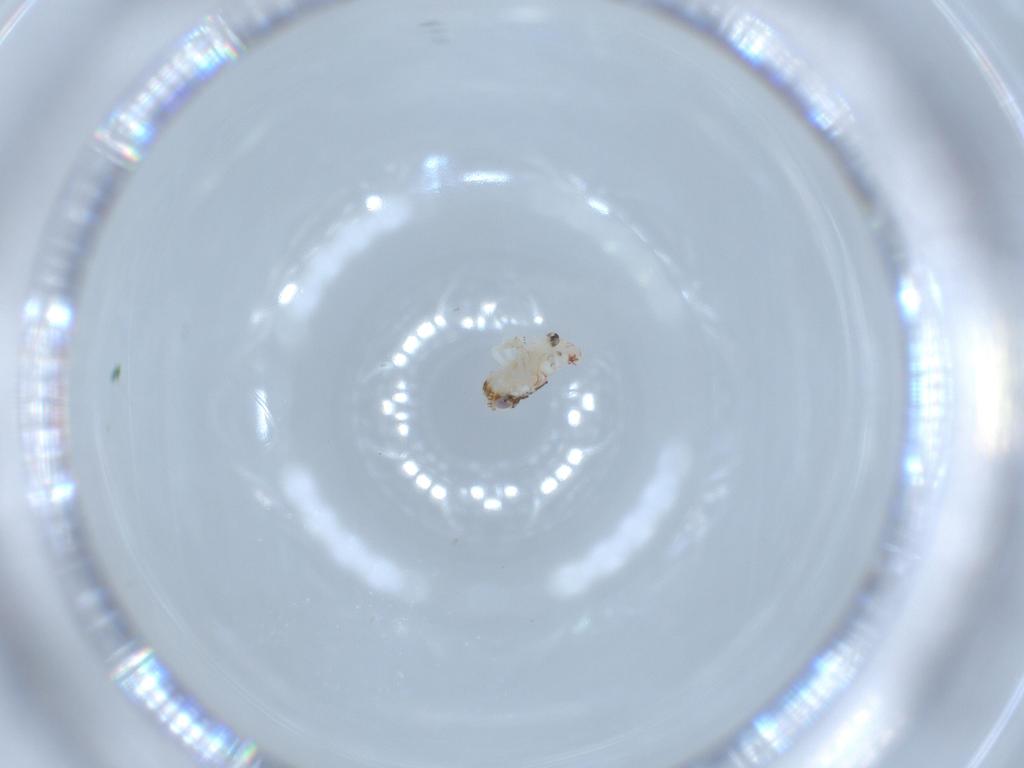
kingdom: Animalia
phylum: Arthropoda
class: Insecta
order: Hemiptera
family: Nogodinidae
